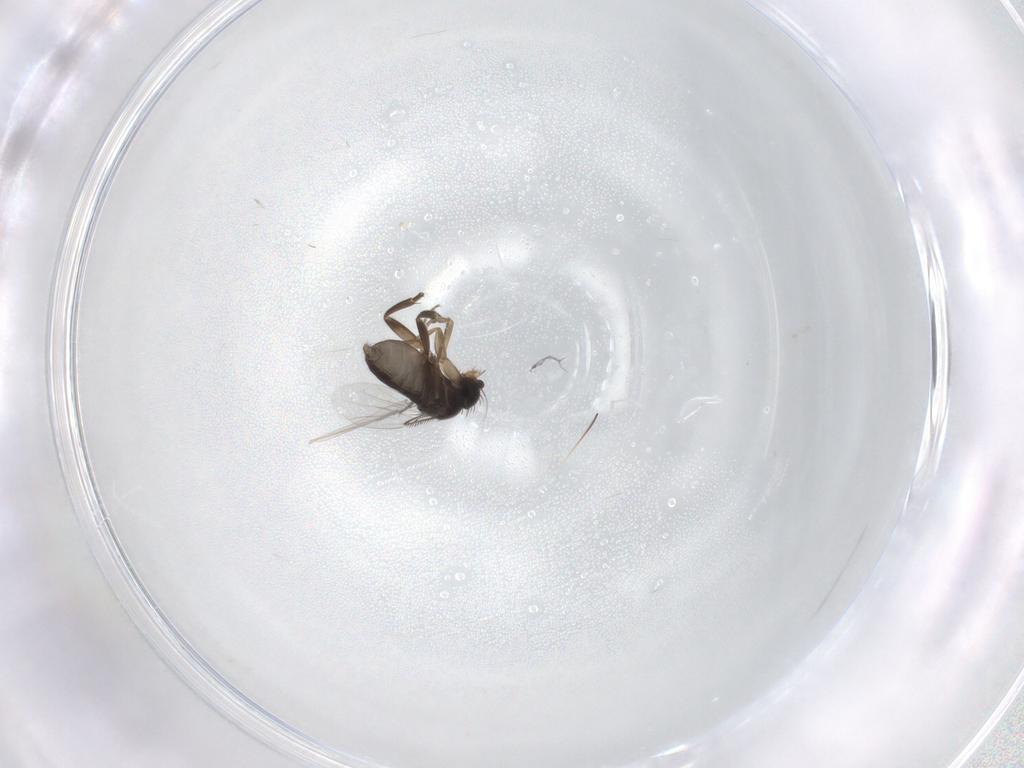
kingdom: Animalia
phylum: Arthropoda
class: Insecta
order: Diptera
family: Phoridae
